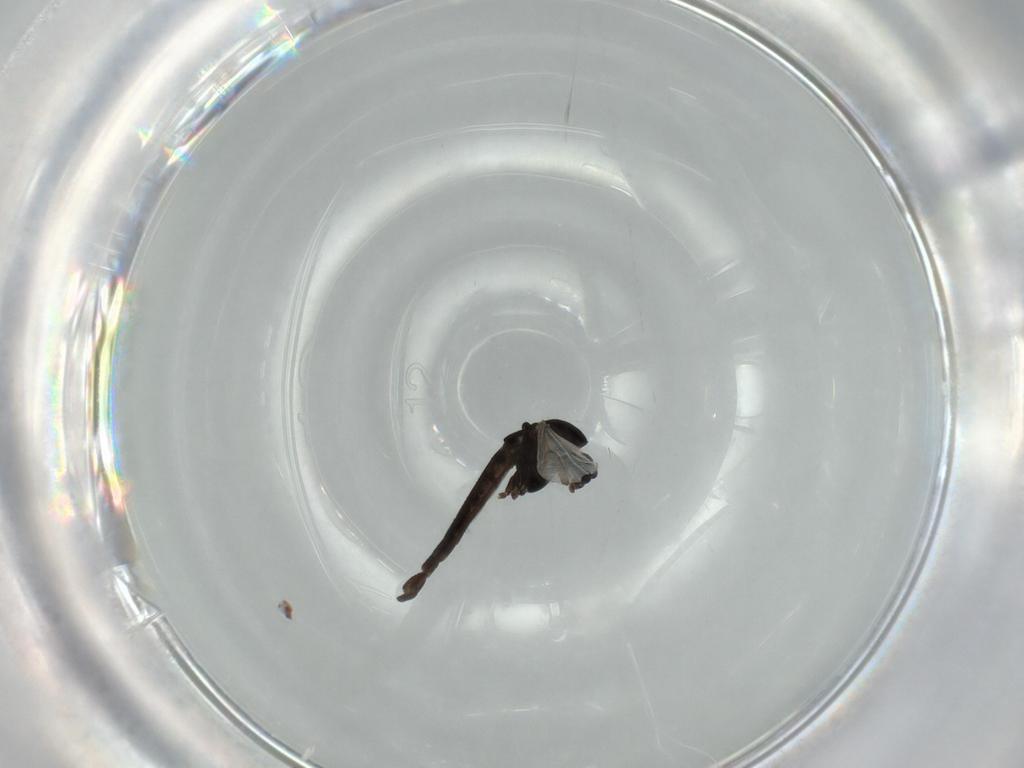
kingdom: Animalia
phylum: Arthropoda
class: Insecta
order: Diptera
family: Chironomidae
